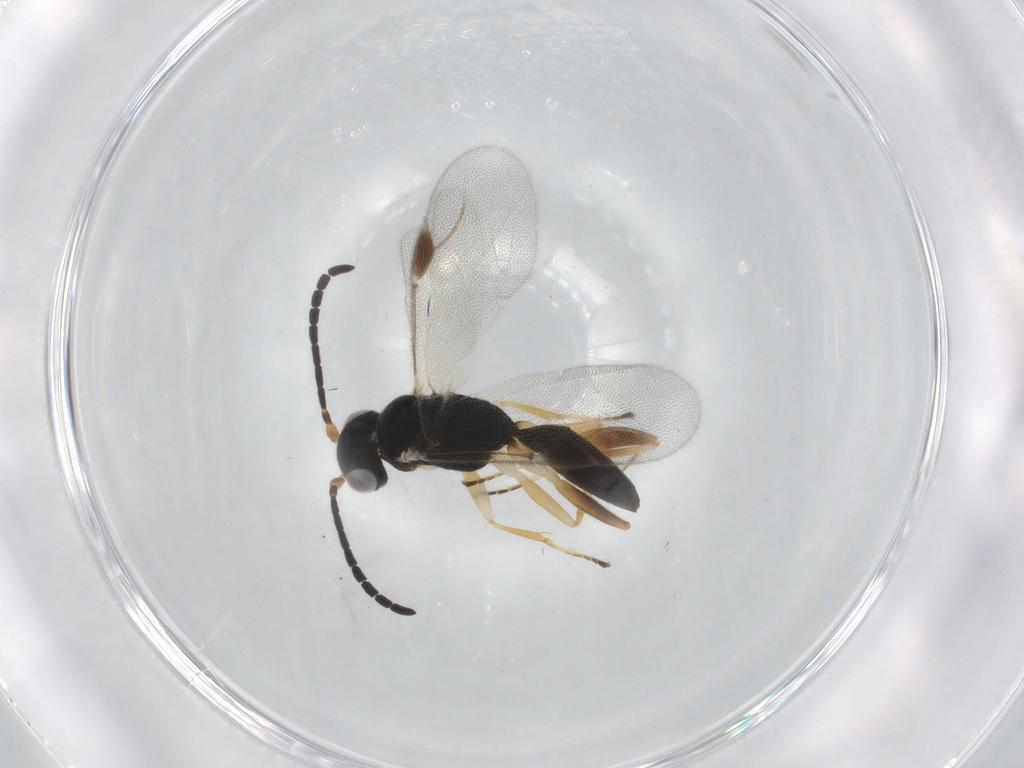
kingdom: Animalia
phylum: Arthropoda
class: Insecta
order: Hymenoptera
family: Dryinidae
